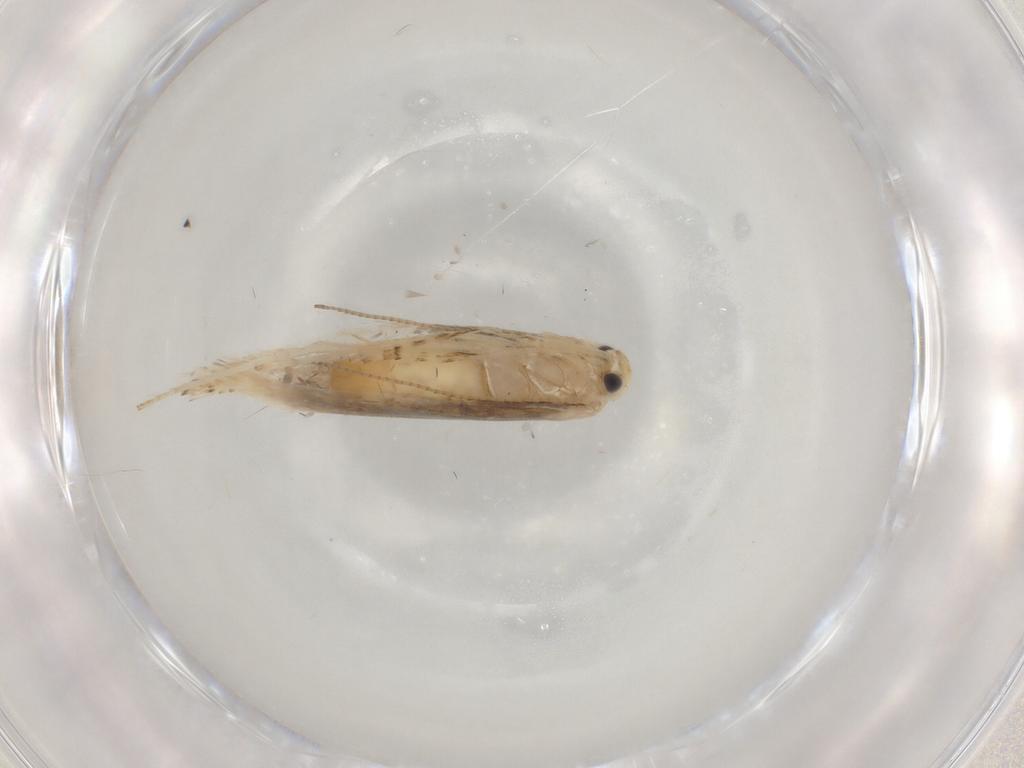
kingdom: Animalia
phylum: Arthropoda
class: Insecta
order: Lepidoptera
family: Gracillariidae
